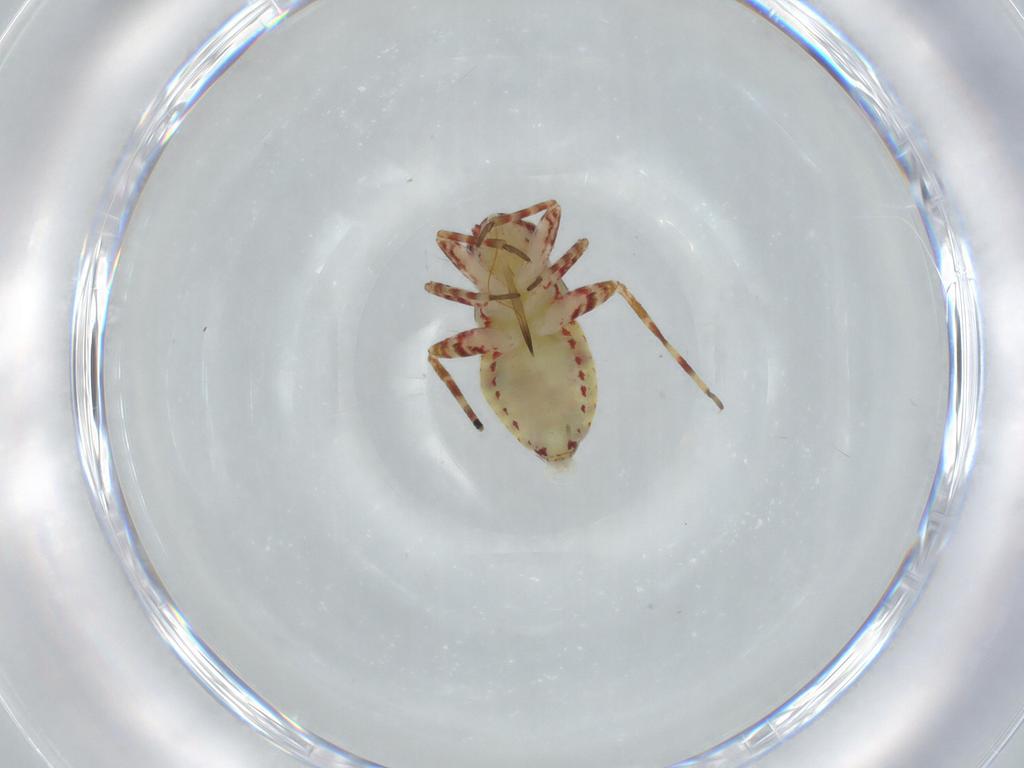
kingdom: Animalia
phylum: Arthropoda
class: Insecta
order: Hemiptera
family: Miridae
